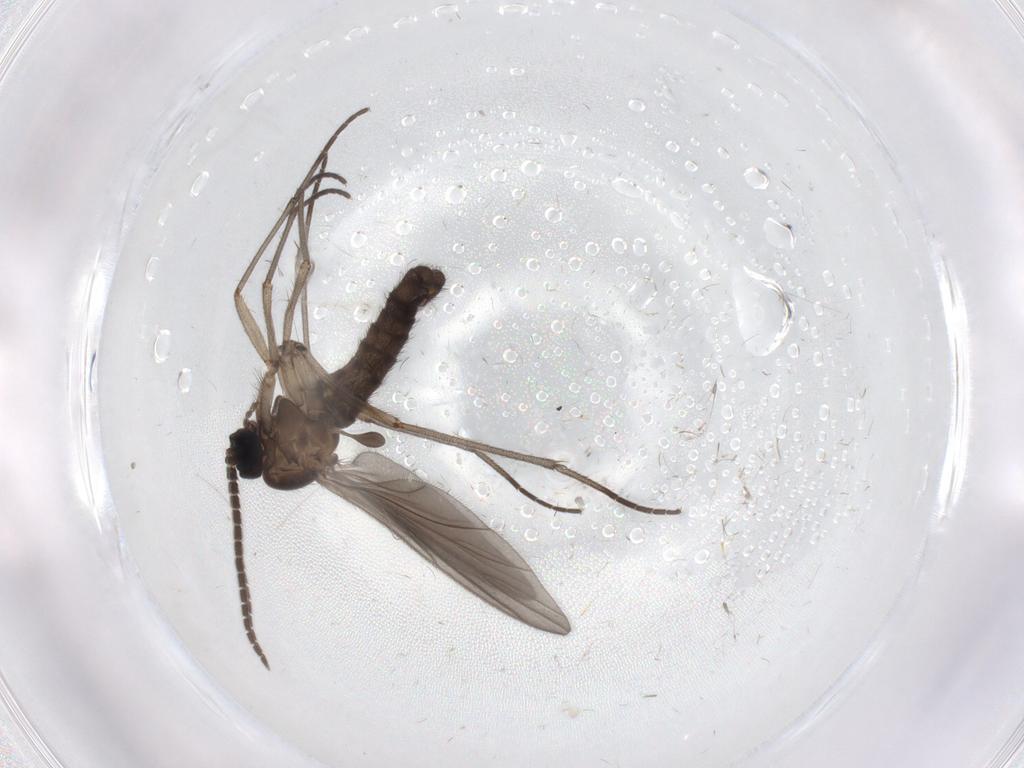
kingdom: Animalia
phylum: Arthropoda
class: Insecta
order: Diptera
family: Sciaridae
